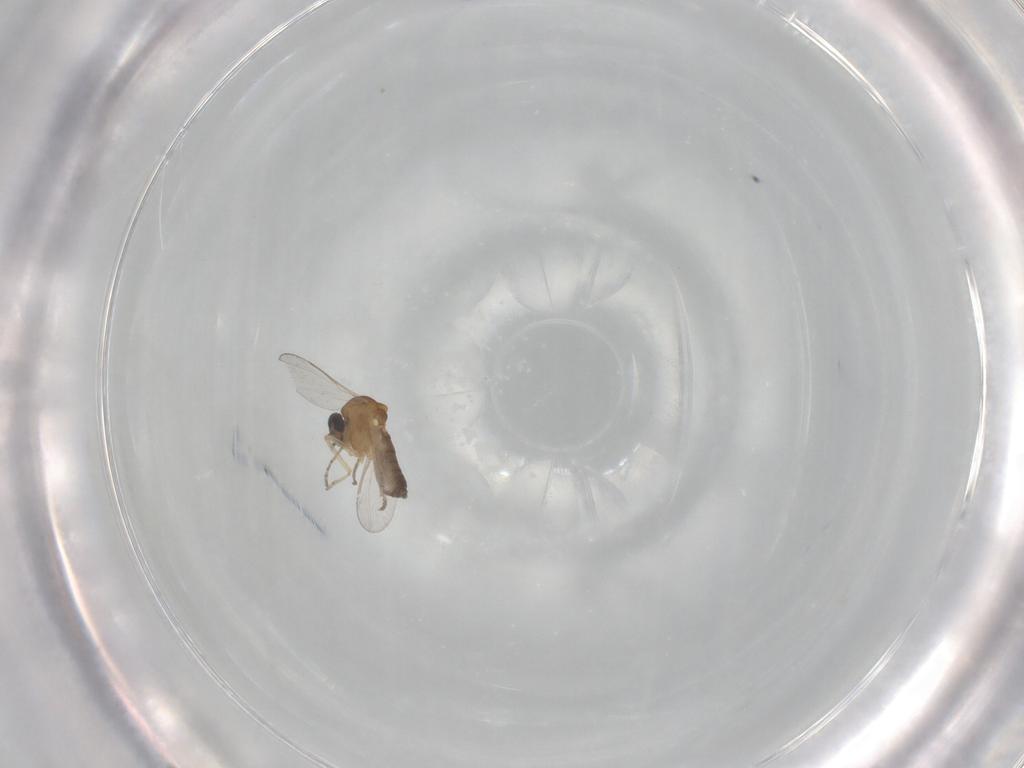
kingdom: Animalia
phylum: Arthropoda
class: Insecta
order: Diptera
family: Ceratopogonidae
